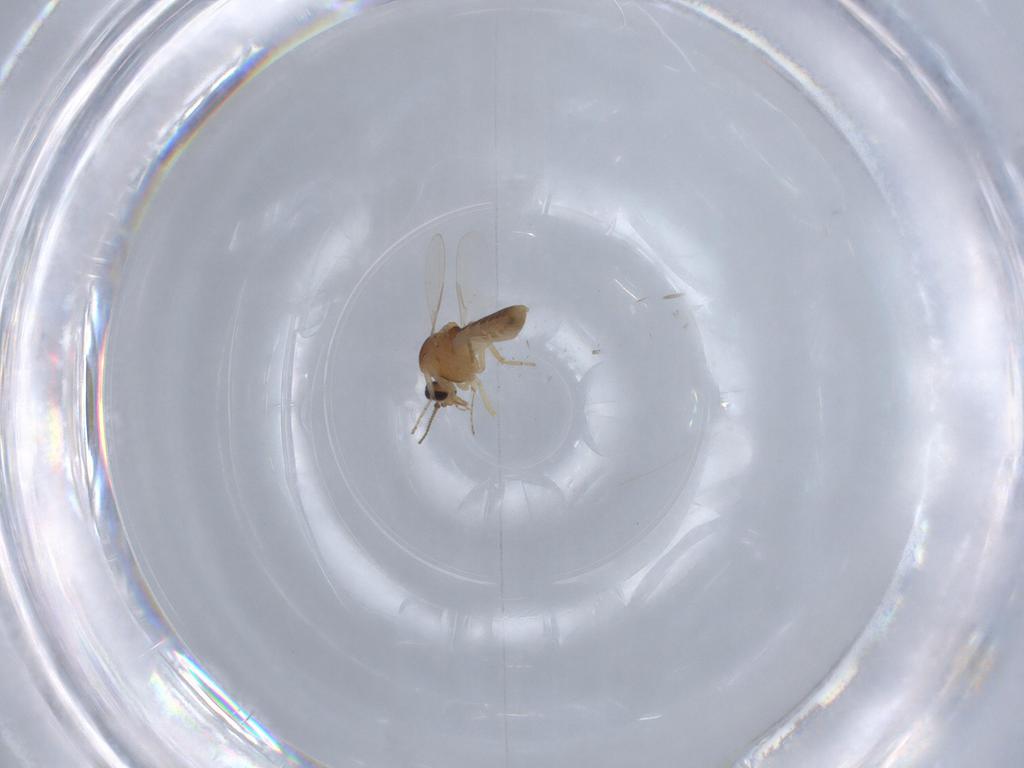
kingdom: Animalia
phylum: Arthropoda
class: Insecta
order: Diptera
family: Ceratopogonidae
